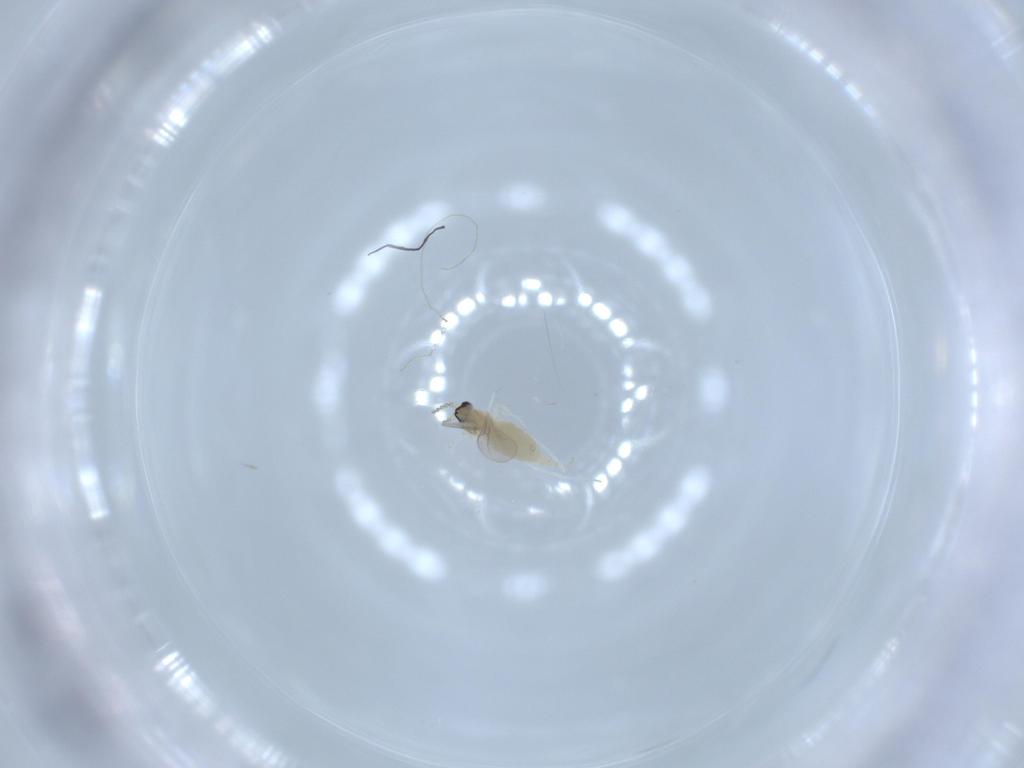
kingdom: Animalia
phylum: Arthropoda
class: Insecta
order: Diptera
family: Cecidomyiidae
